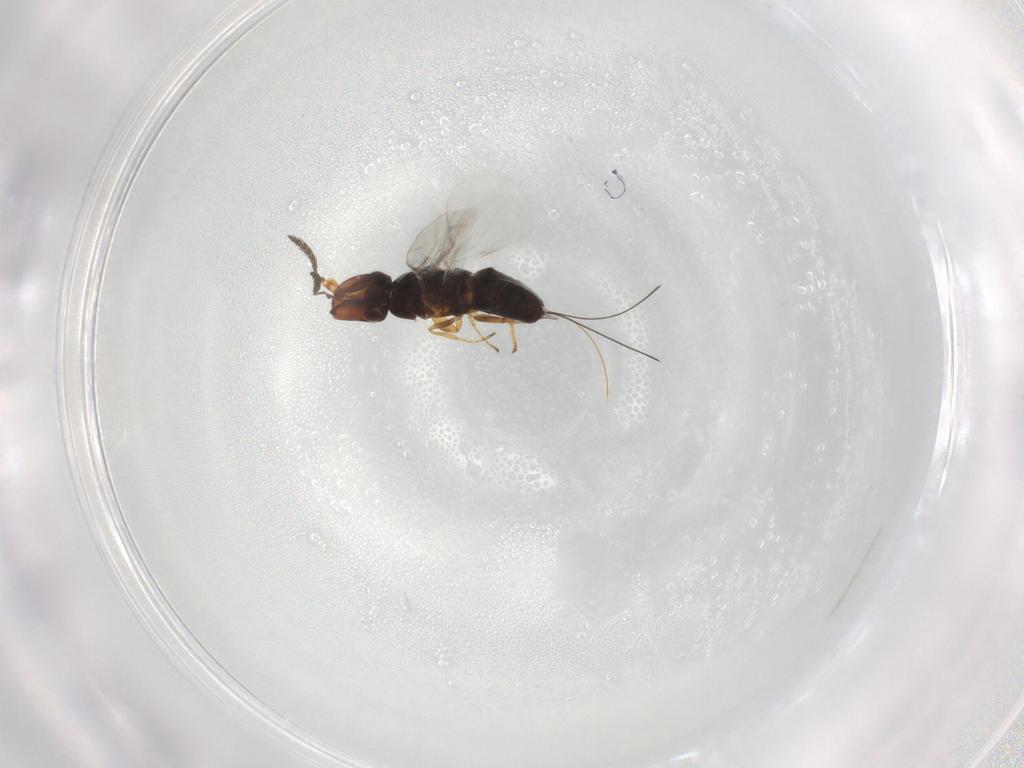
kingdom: Animalia
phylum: Arthropoda
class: Insecta
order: Hymenoptera
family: Agaonidae
